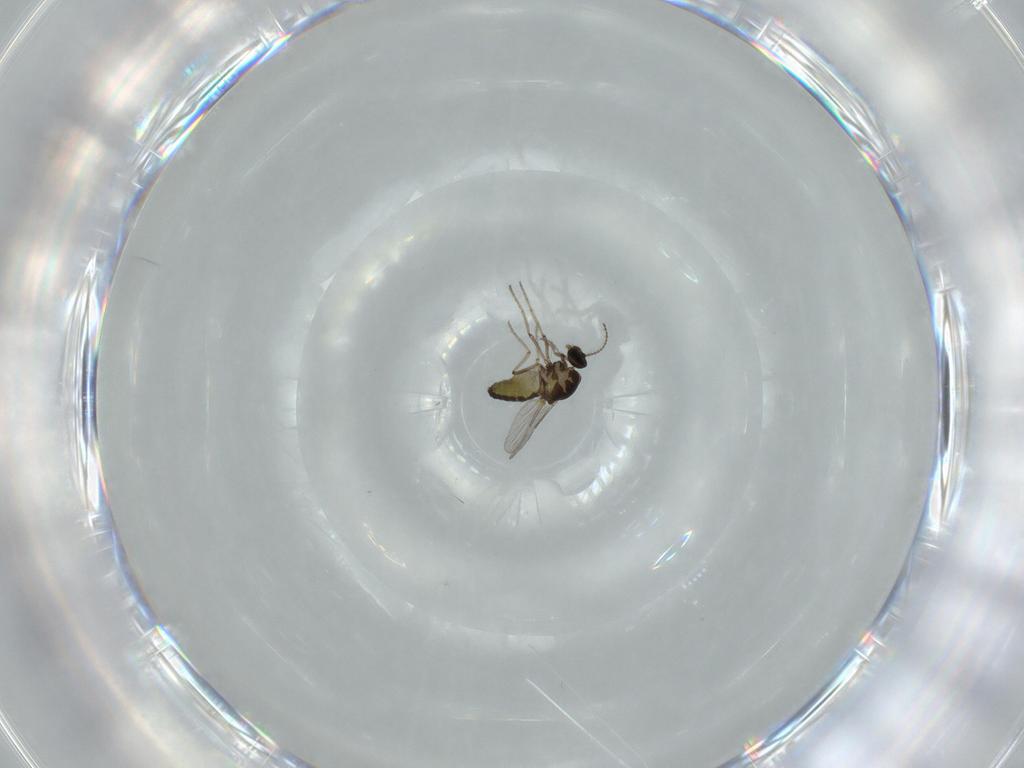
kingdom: Animalia
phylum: Arthropoda
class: Insecta
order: Diptera
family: Ceratopogonidae
